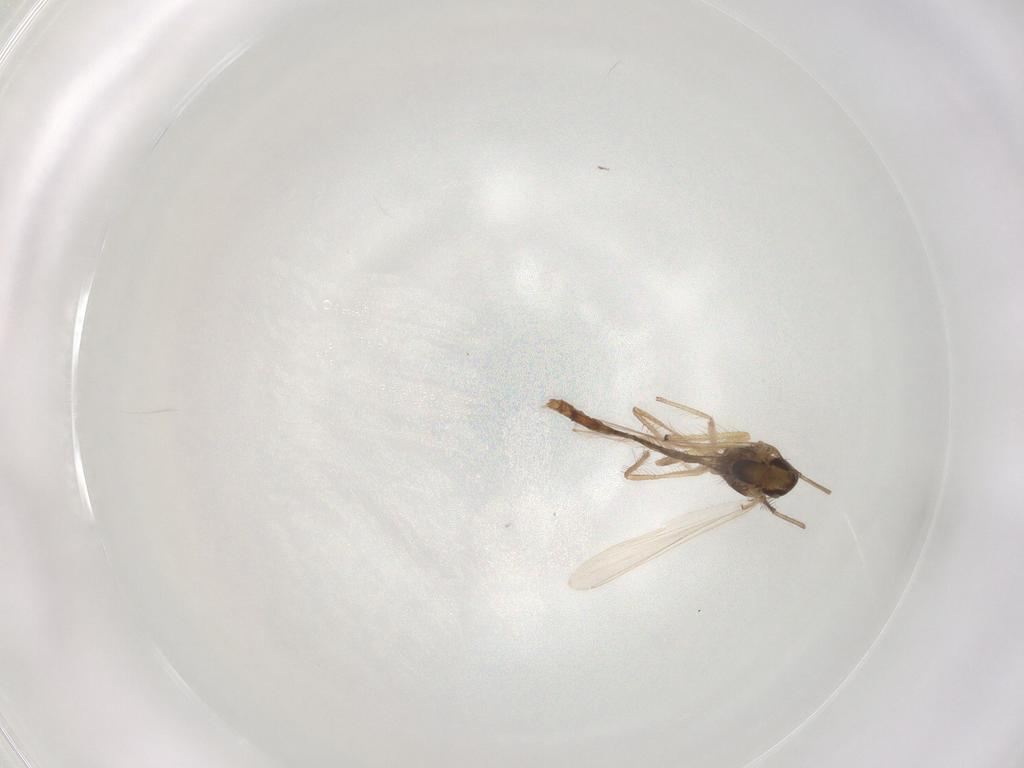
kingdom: Animalia
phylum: Arthropoda
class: Insecta
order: Diptera
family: Chironomidae
